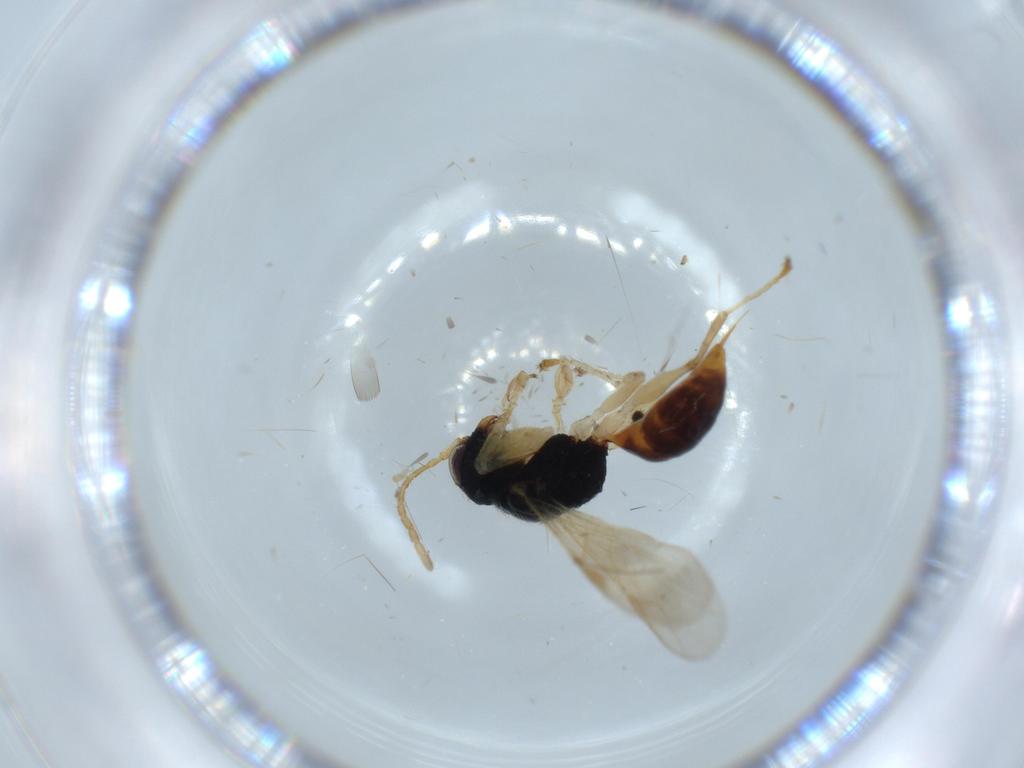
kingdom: Animalia
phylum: Arthropoda
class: Insecta
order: Hymenoptera
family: Dryinidae
